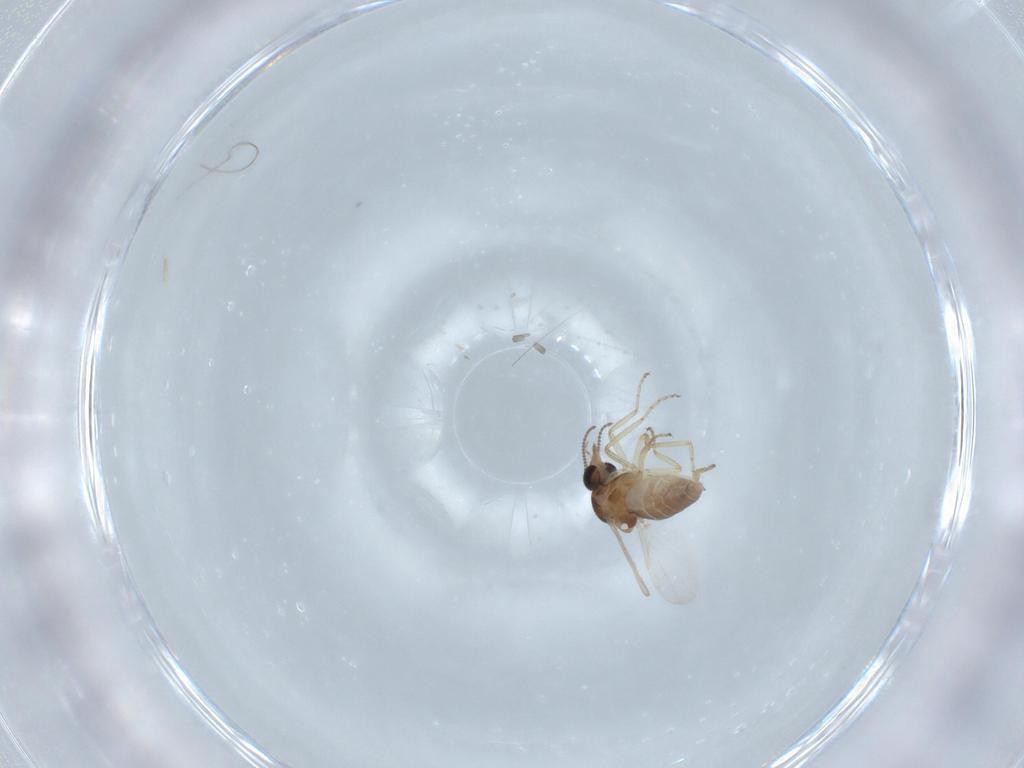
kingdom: Animalia
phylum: Arthropoda
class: Insecta
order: Diptera
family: Ceratopogonidae
